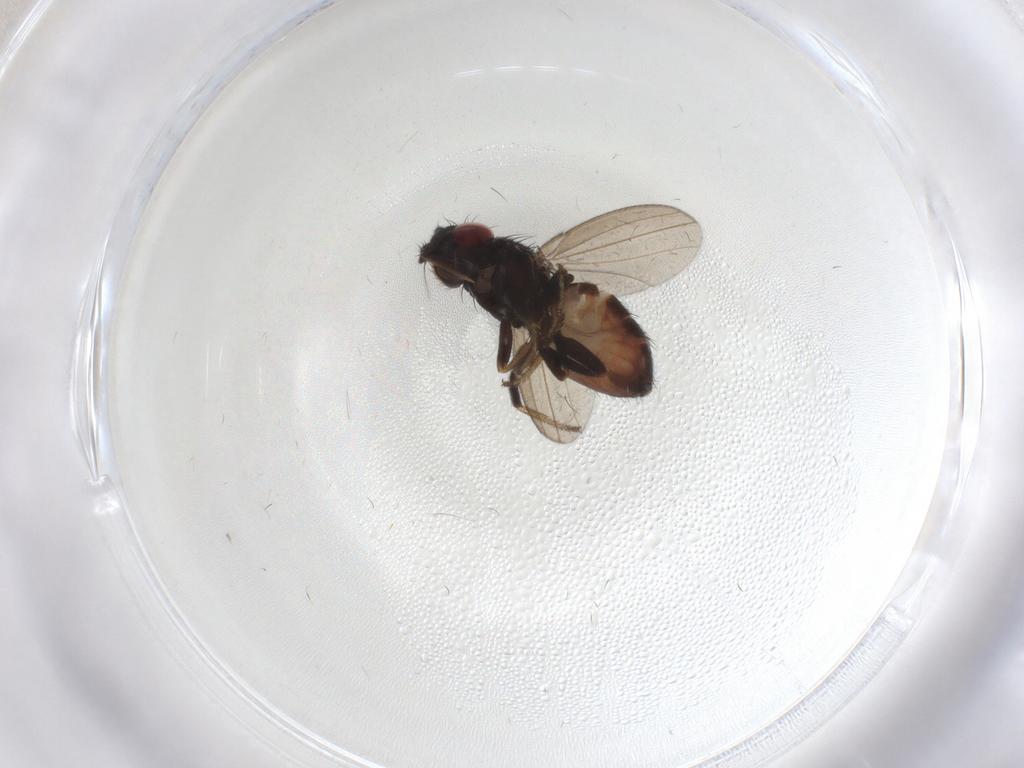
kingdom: Animalia
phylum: Arthropoda
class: Insecta
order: Diptera
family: Milichiidae
